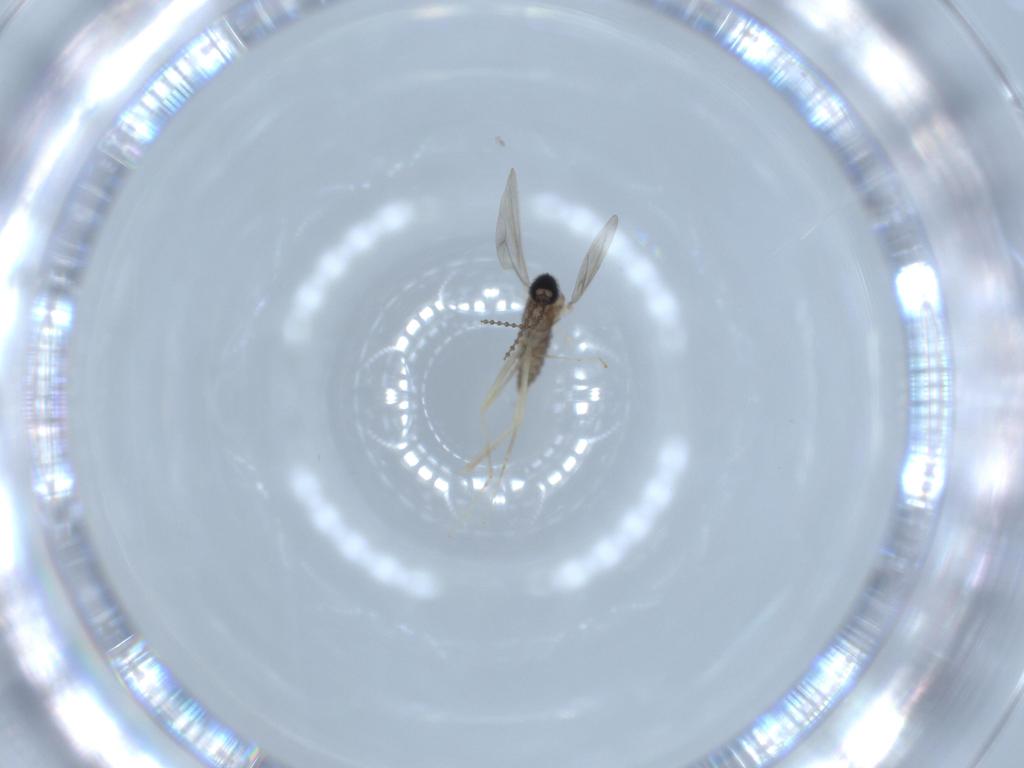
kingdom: Animalia
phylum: Arthropoda
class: Insecta
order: Diptera
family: Cecidomyiidae
